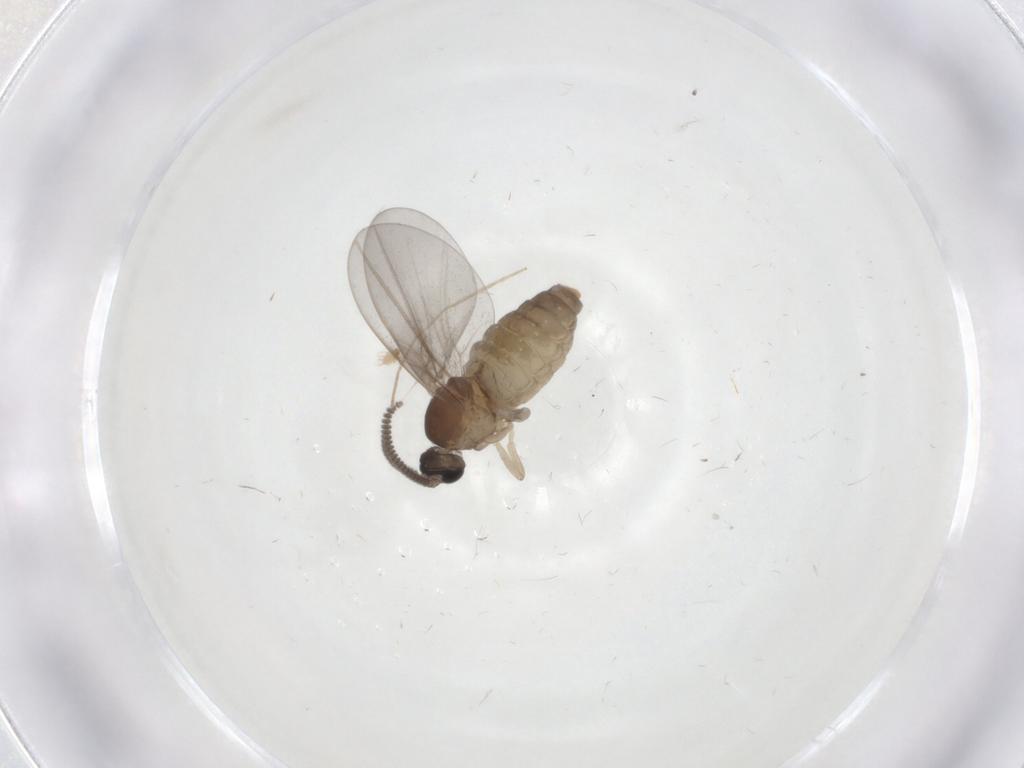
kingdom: Animalia
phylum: Arthropoda
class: Insecta
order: Diptera
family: Cecidomyiidae
